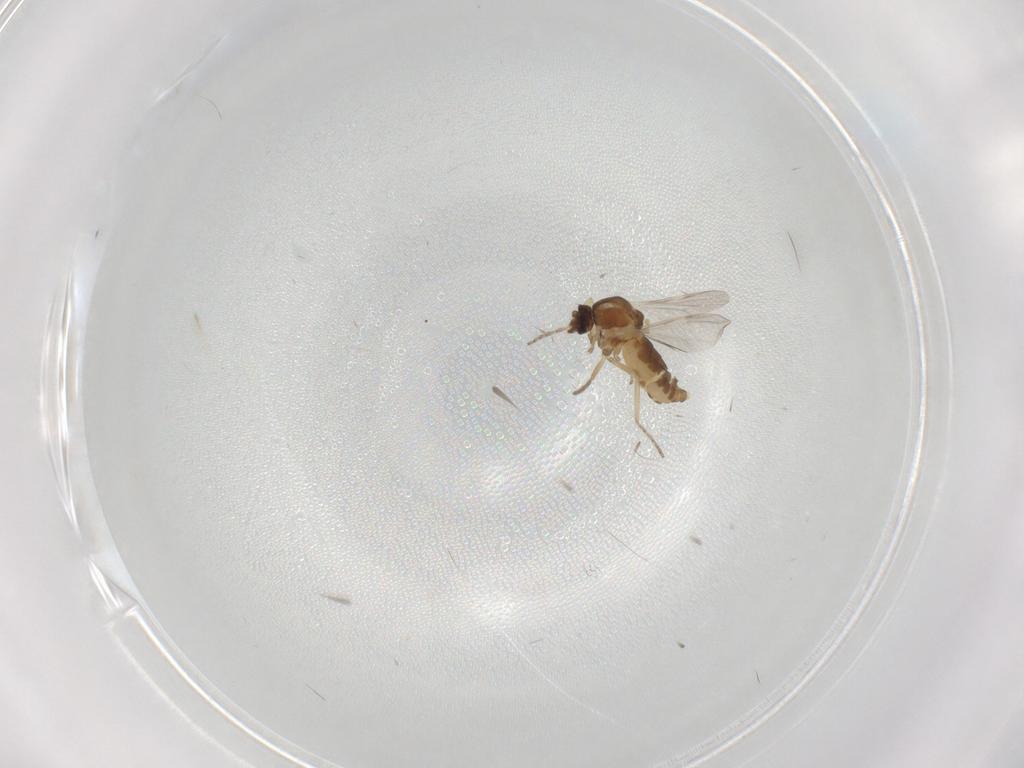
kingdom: Animalia
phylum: Arthropoda
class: Insecta
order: Diptera
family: Ceratopogonidae
